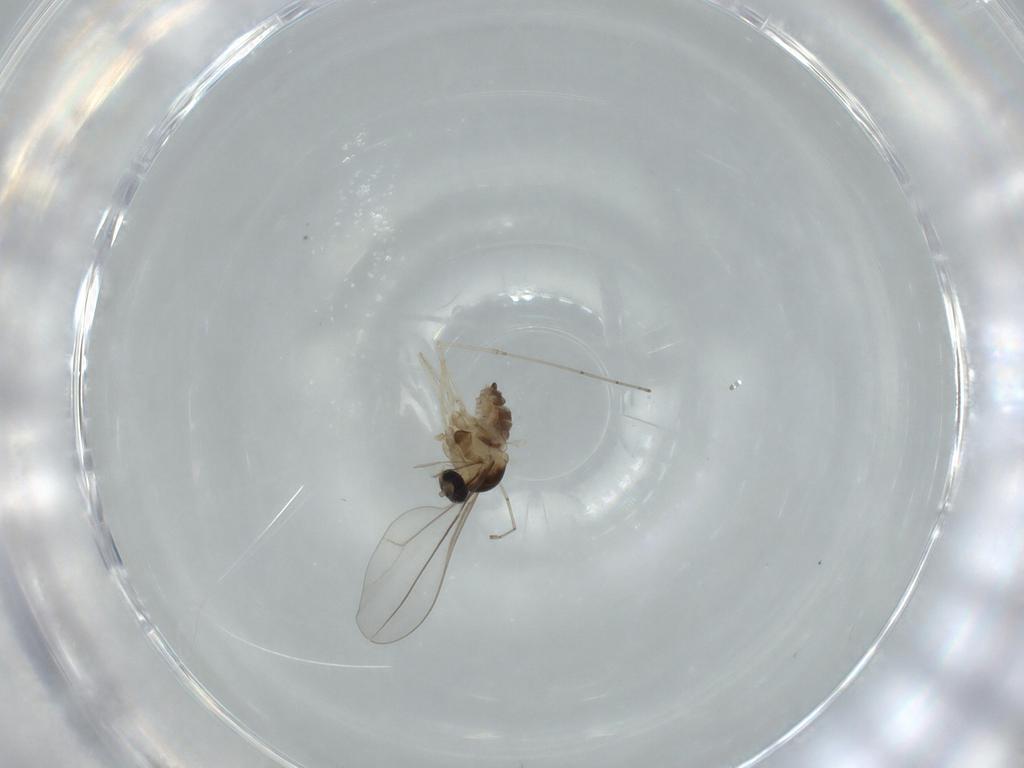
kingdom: Animalia
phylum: Arthropoda
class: Insecta
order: Diptera
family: Cecidomyiidae
